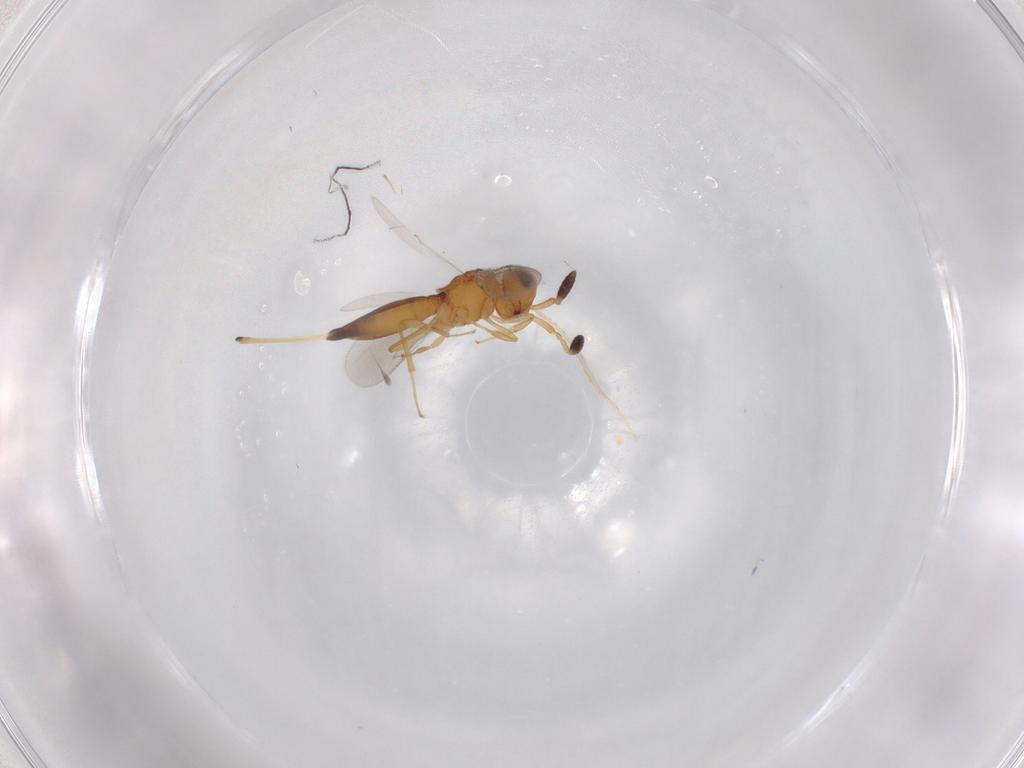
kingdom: Animalia
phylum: Arthropoda
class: Insecta
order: Hymenoptera
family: Scelionidae
